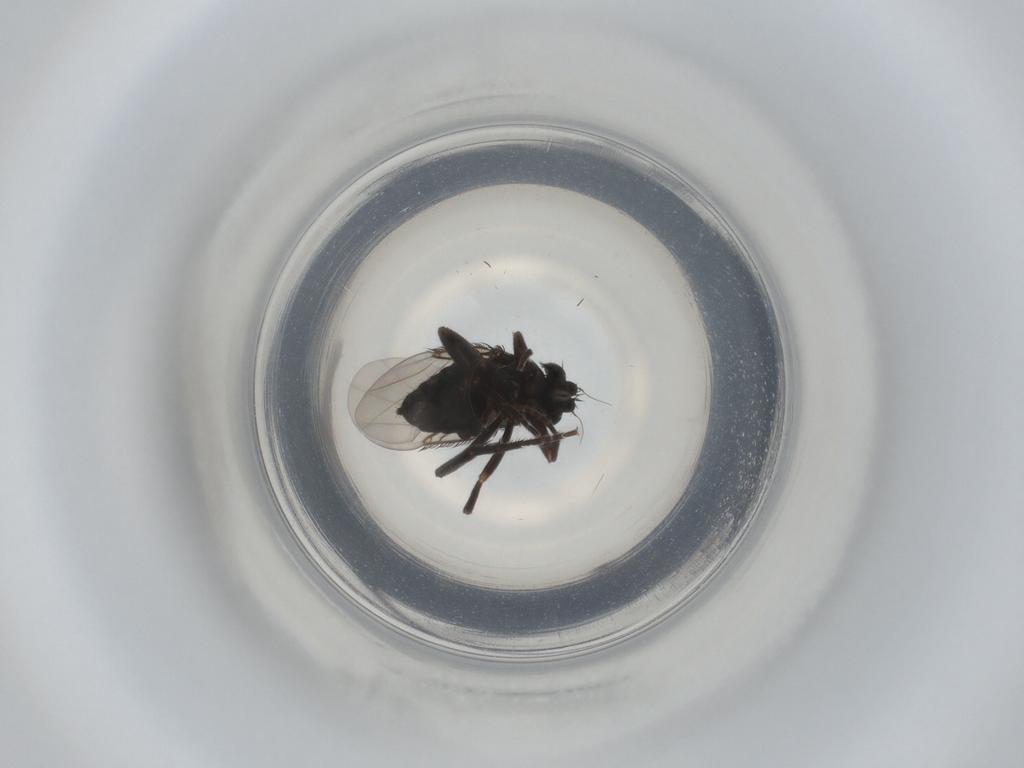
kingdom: Animalia
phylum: Arthropoda
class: Insecta
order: Diptera
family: Phoridae
